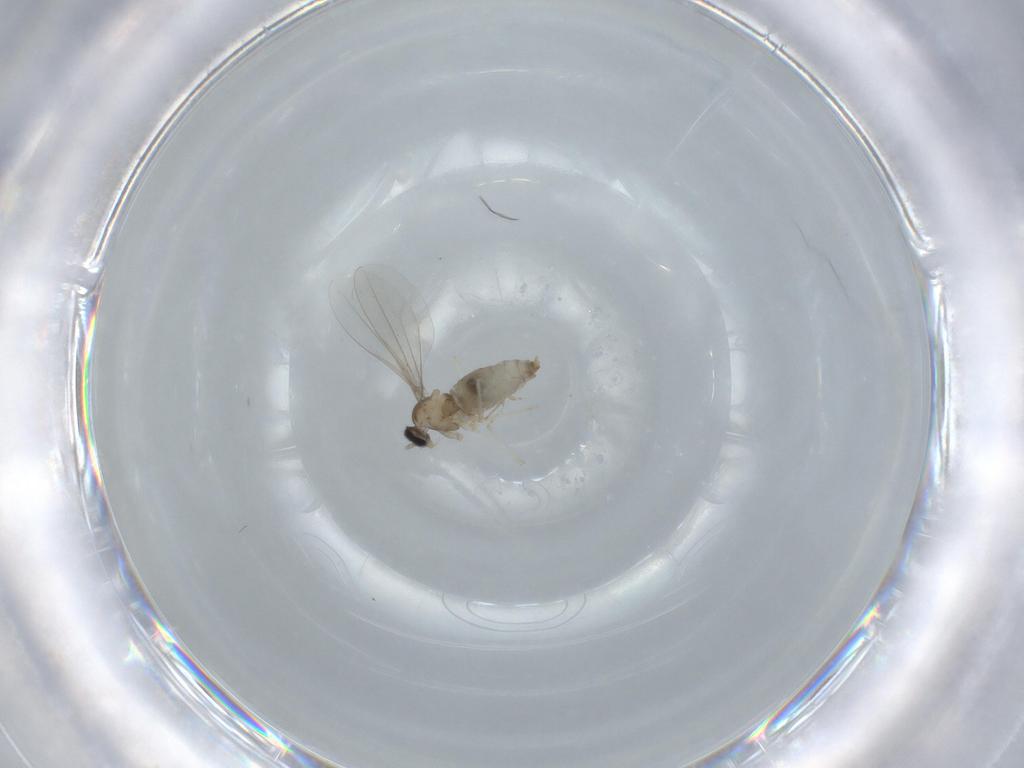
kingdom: Animalia
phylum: Arthropoda
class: Insecta
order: Diptera
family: Cecidomyiidae
